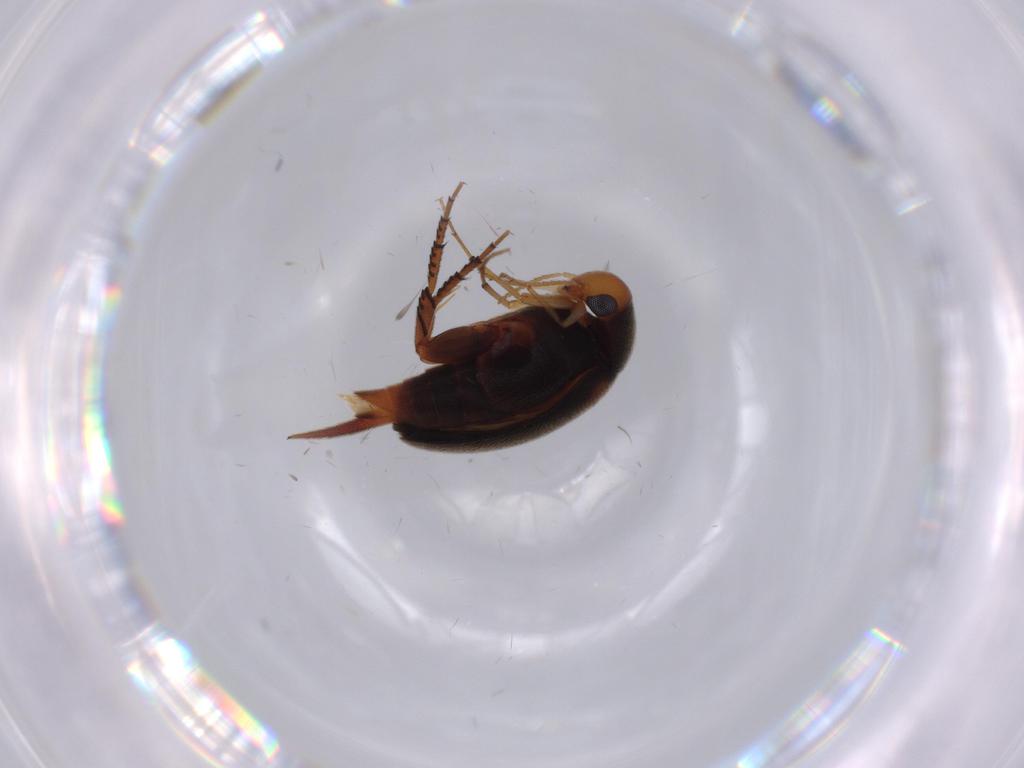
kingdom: Animalia
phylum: Arthropoda
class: Insecta
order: Coleoptera
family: Mordellidae
